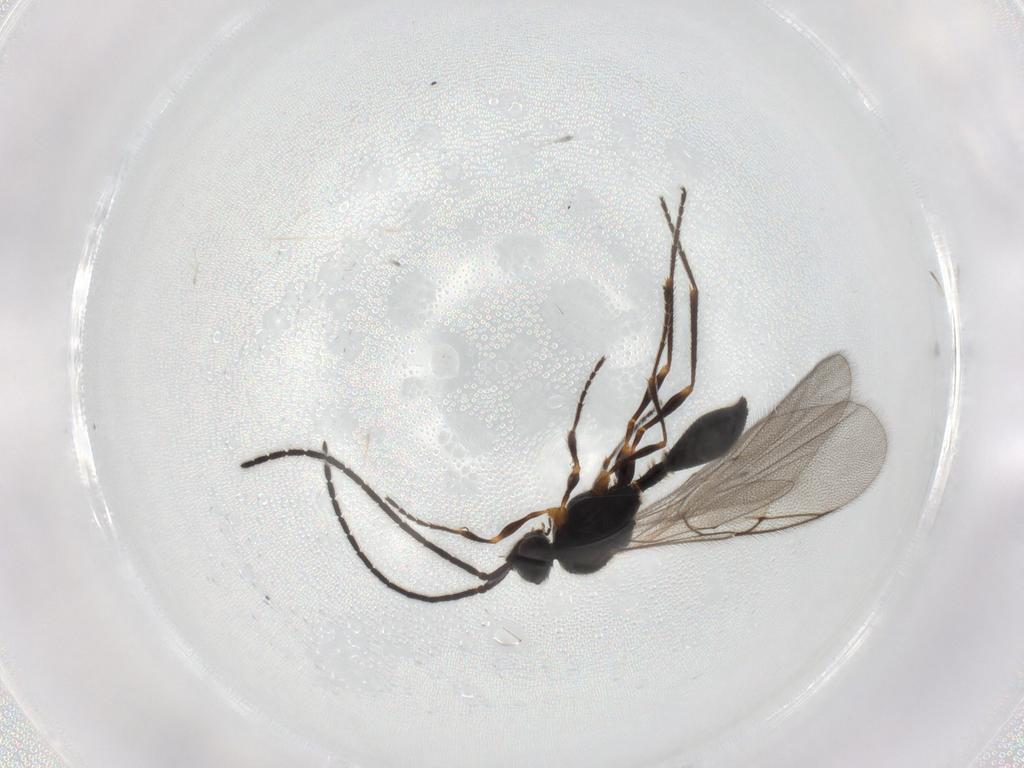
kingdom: Animalia
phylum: Arthropoda
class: Insecta
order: Hymenoptera
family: Diapriidae
